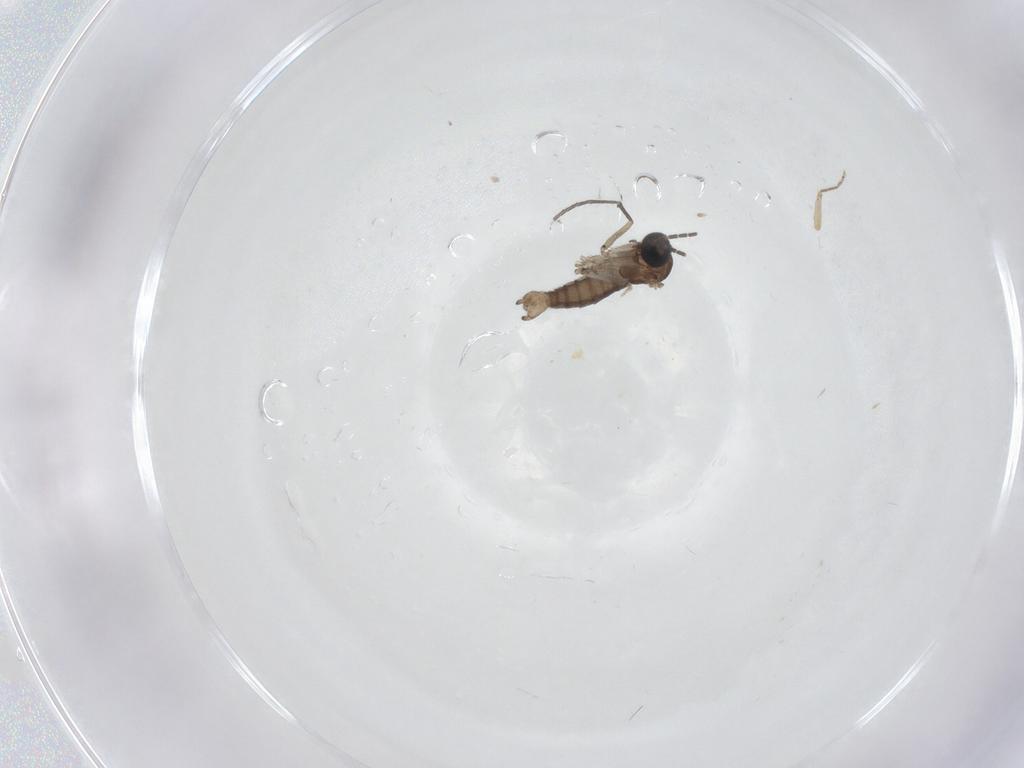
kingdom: Animalia
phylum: Arthropoda
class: Insecta
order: Diptera
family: Sciaridae
